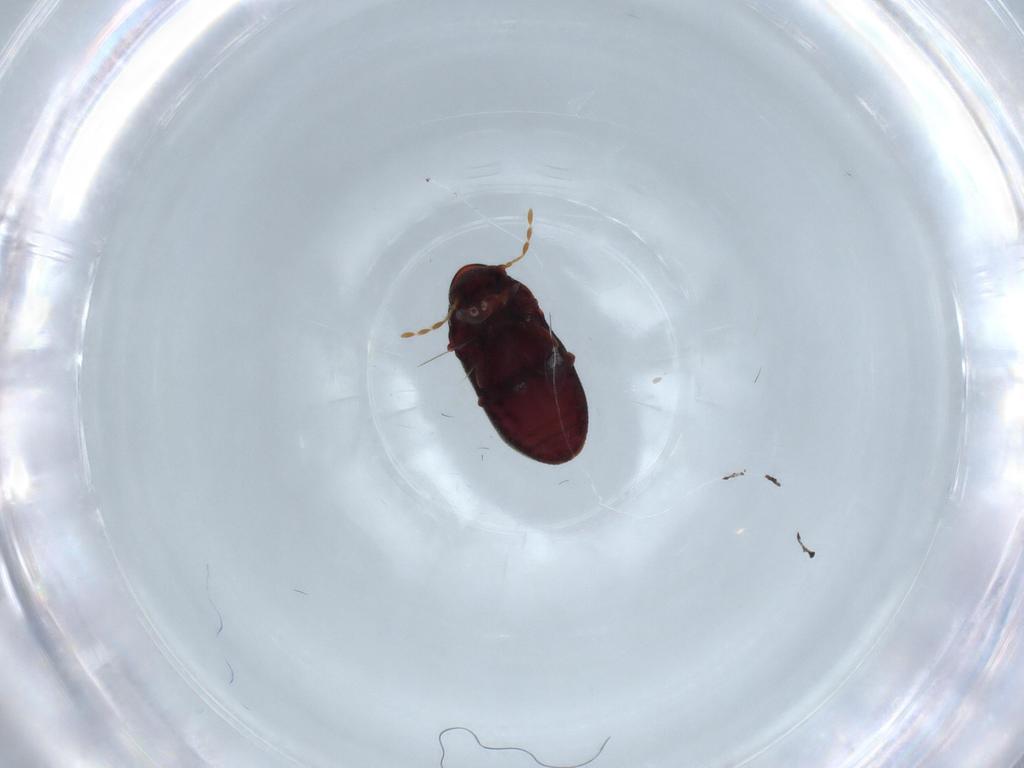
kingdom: Animalia
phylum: Arthropoda
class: Insecta
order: Coleoptera
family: Ptinidae
